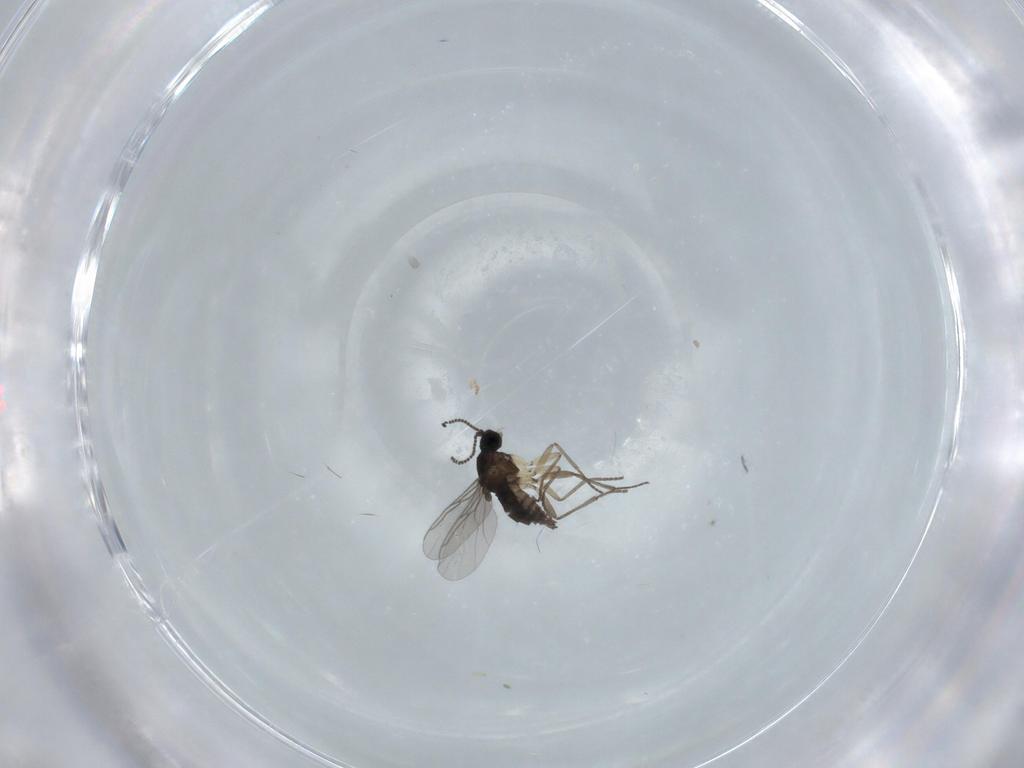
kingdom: Animalia
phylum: Arthropoda
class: Insecta
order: Diptera
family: Sciaridae
